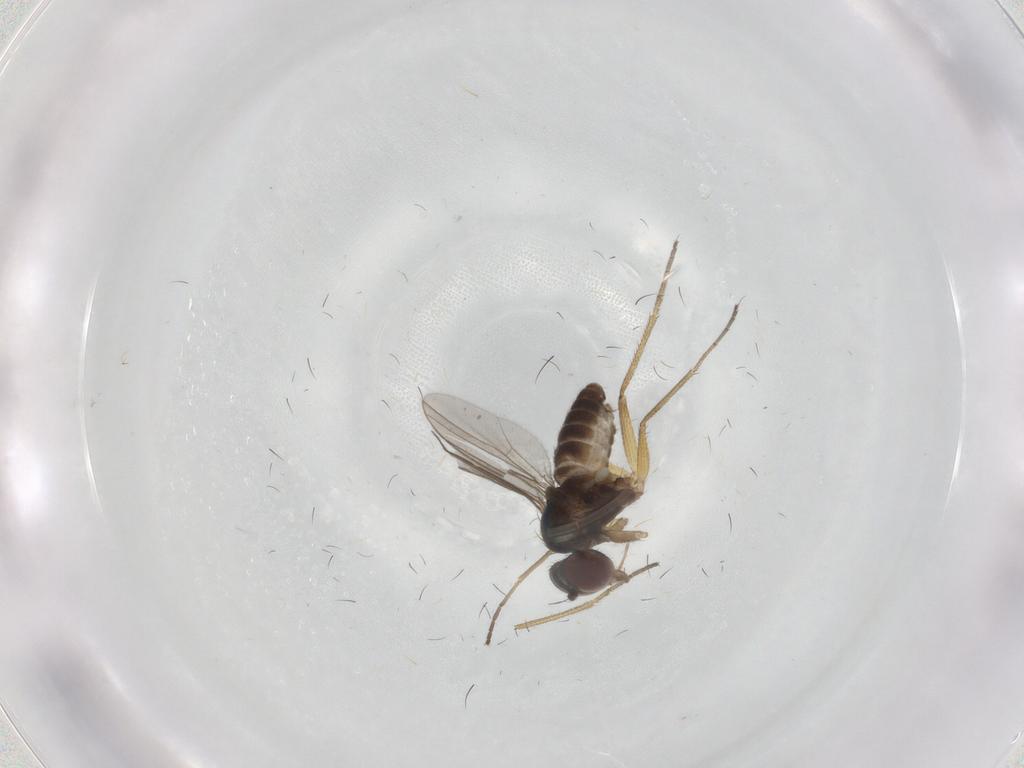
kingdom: Animalia
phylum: Arthropoda
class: Insecta
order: Diptera
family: Dolichopodidae
